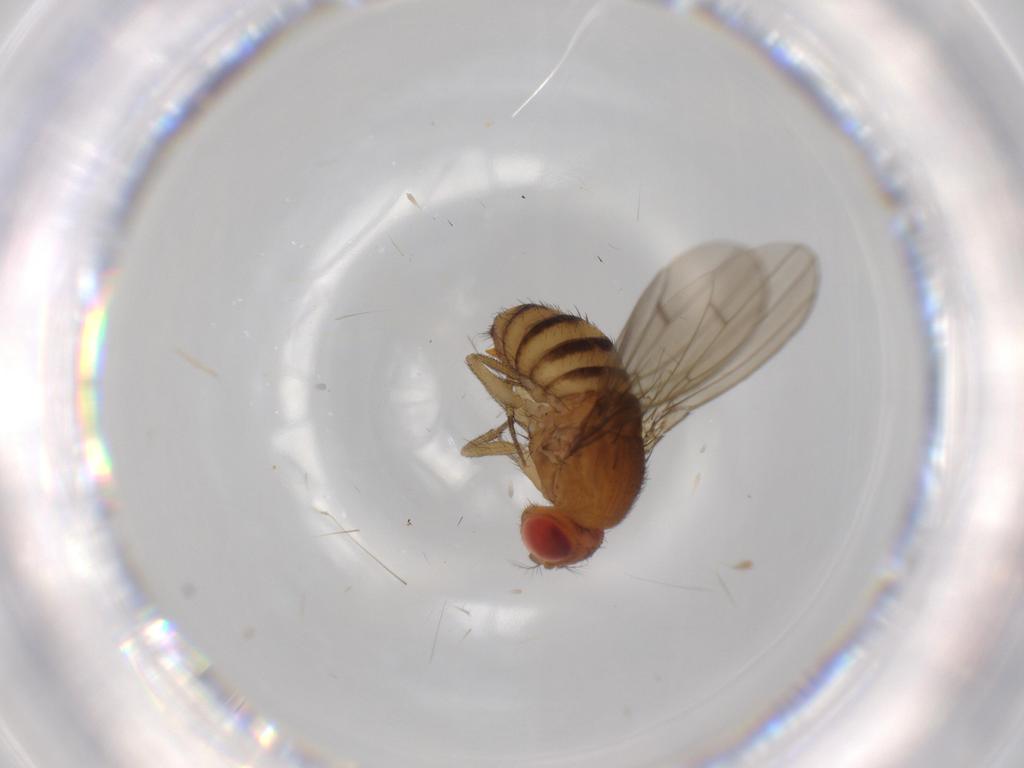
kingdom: Animalia
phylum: Arthropoda
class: Insecta
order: Diptera
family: Drosophilidae
